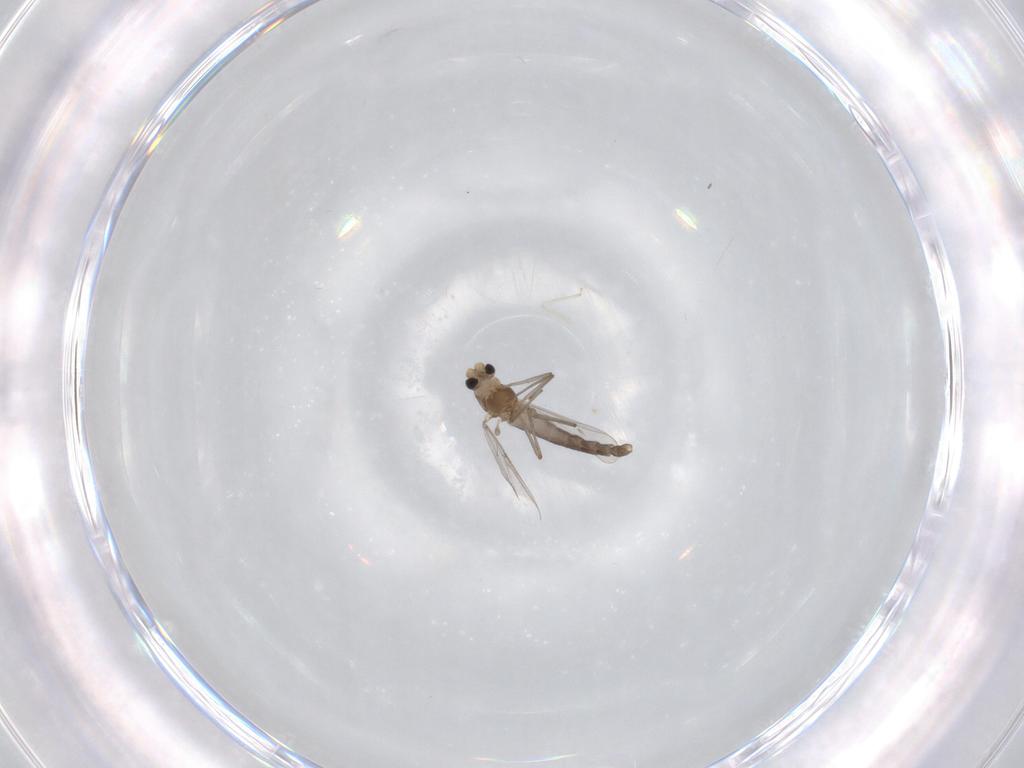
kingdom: Animalia
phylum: Arthropoda
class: Insecta
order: Diptera
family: Chironomidae
